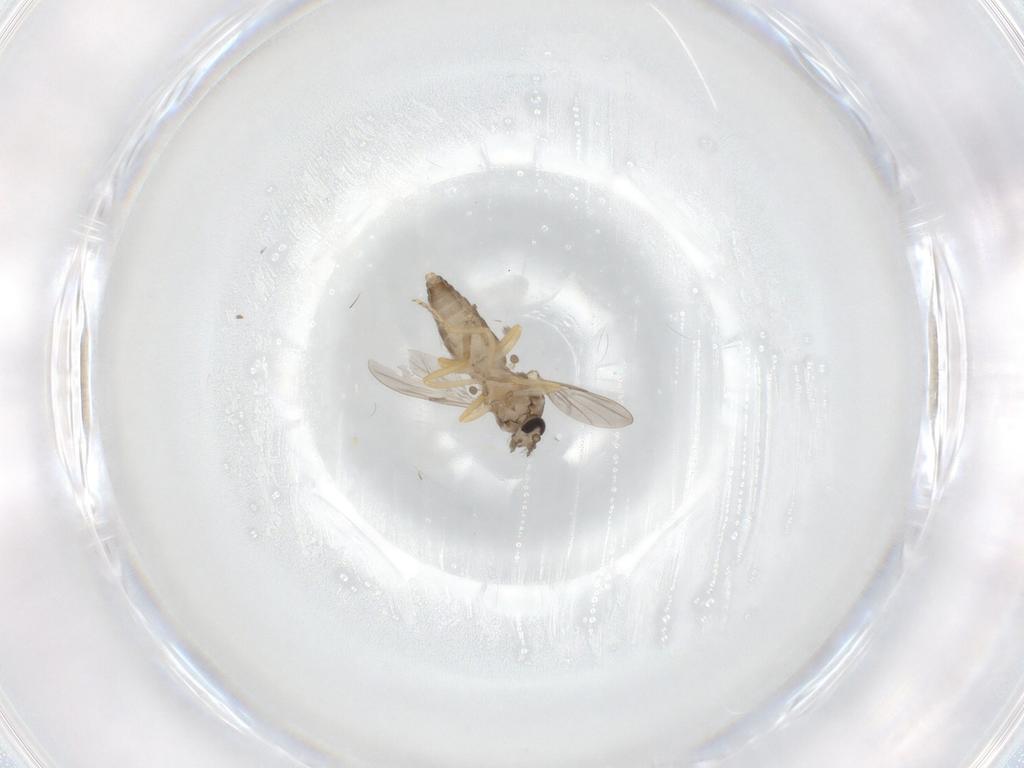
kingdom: Animalia
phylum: Arthropoda
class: Insecta
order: Diptera
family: Ceratopogonidae
